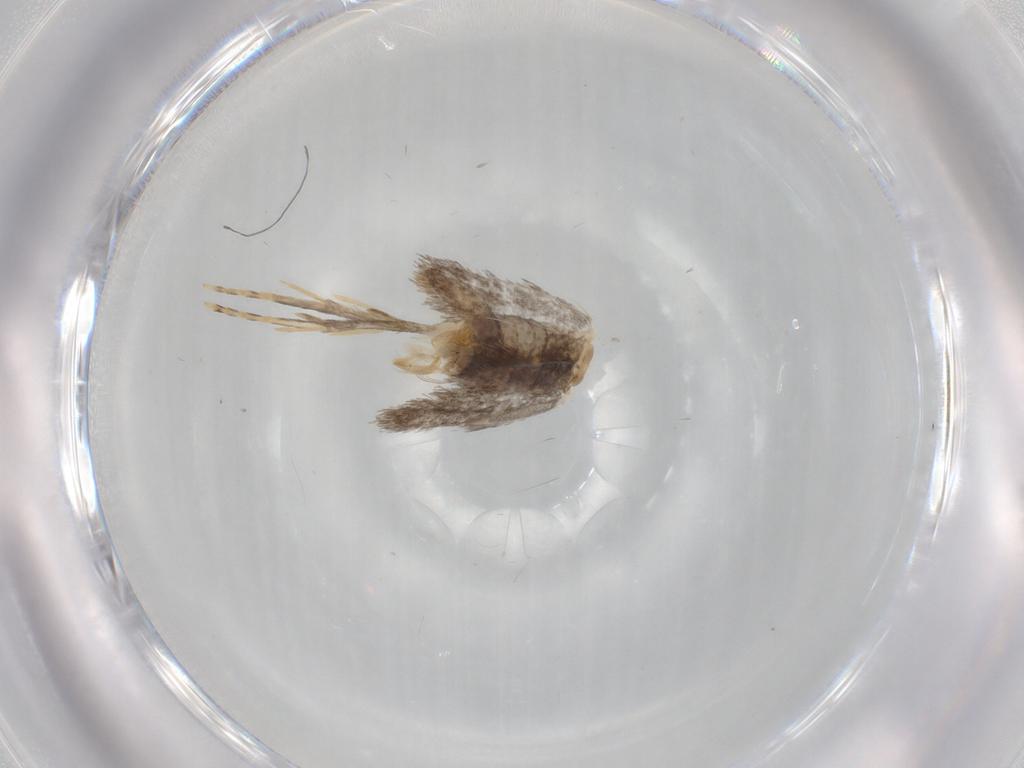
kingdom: Animalia
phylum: Arthropoda
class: Insecta
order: Lepidoptera
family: Tineidae
